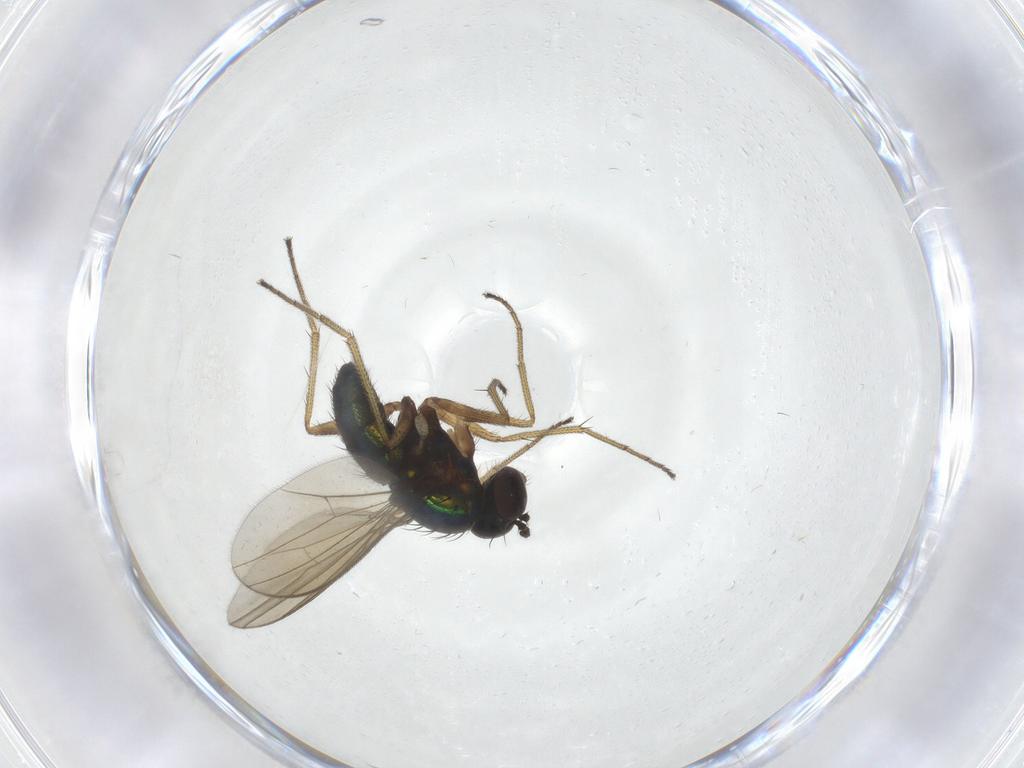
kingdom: Animalia
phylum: Arthropoda
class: Insecta
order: Diptera
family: Dolichopodidae
